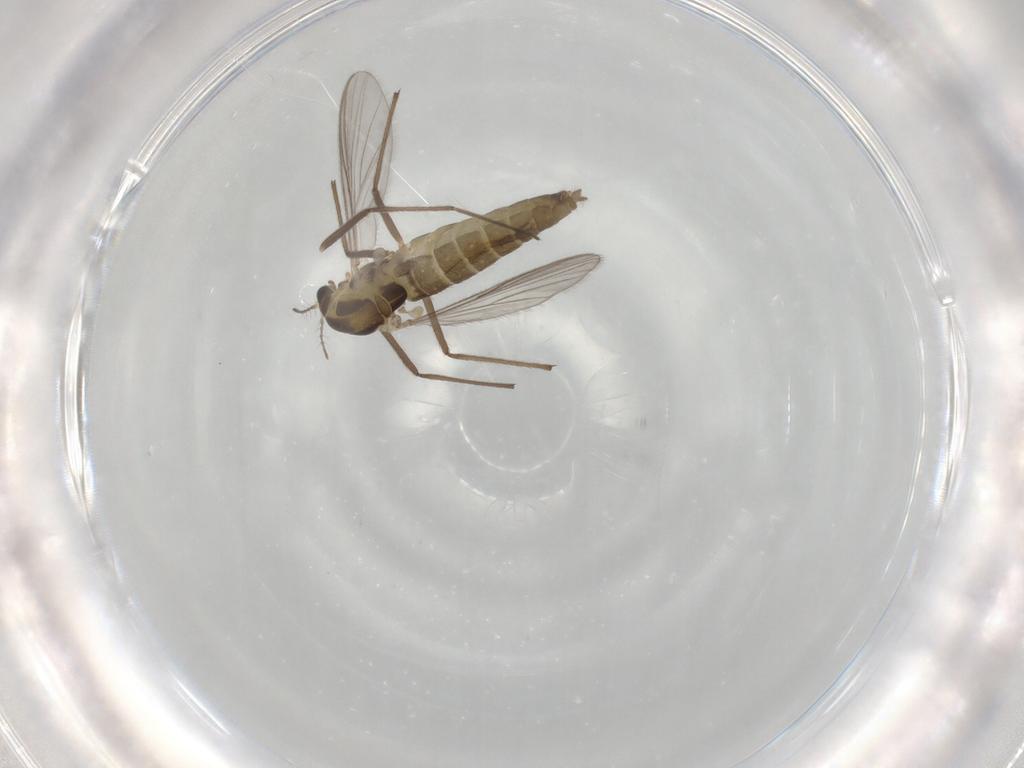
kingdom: Animalia
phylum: Arthropoda
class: Insecta
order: Diptera
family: Chironomidae
